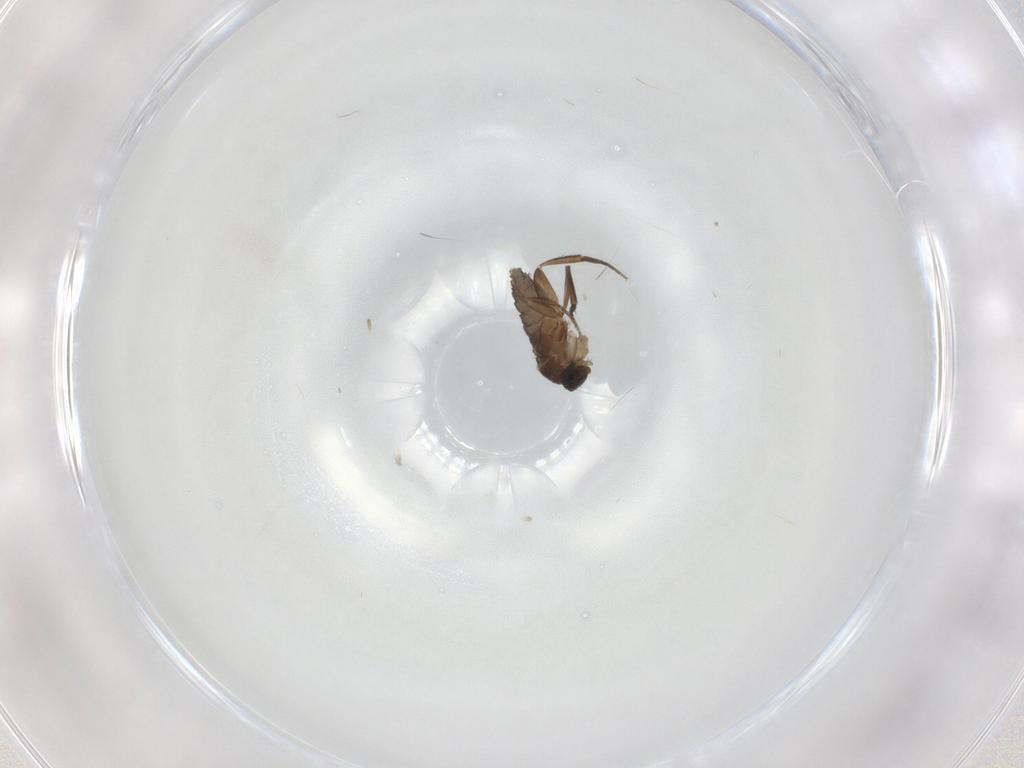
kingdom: Animalia
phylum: Arthropoda
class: Insecta
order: Diptera
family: Phoridae
